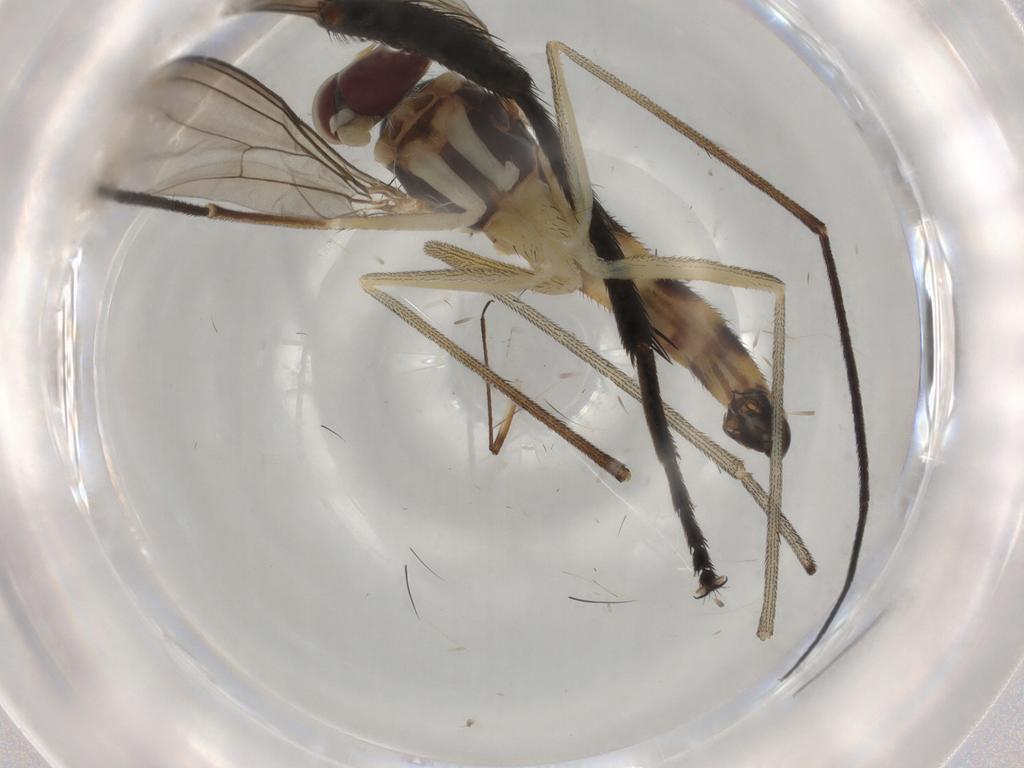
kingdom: Animalia
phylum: Arthropoda
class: Insecta
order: Diptera
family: Muscidae
